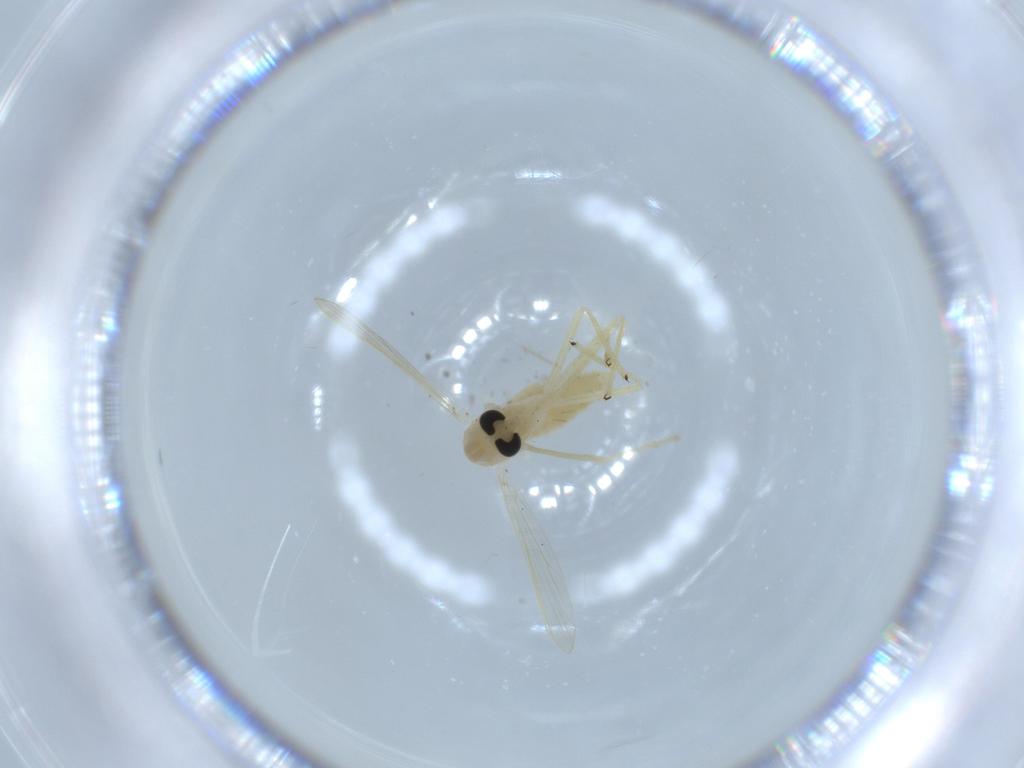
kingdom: Animalia
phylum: Arthropoda
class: Insecta
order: Diptera
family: Chironomidae
